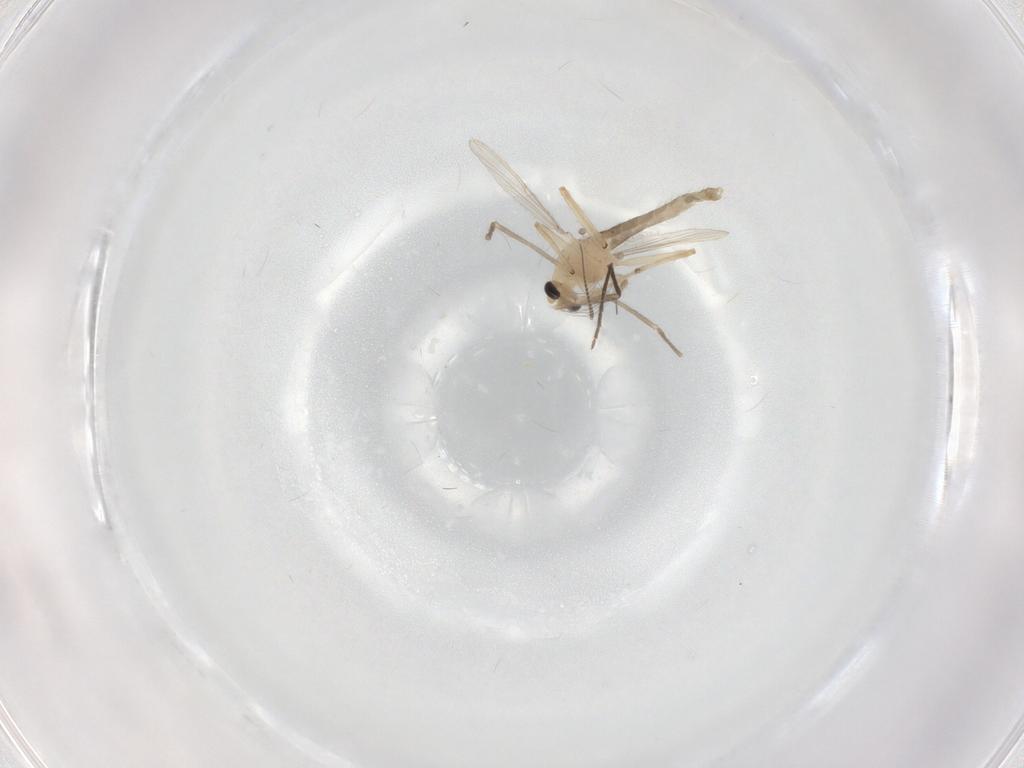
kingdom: Animalia
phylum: Arthropoda
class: Insecta
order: Diptera
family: Chironomidae
